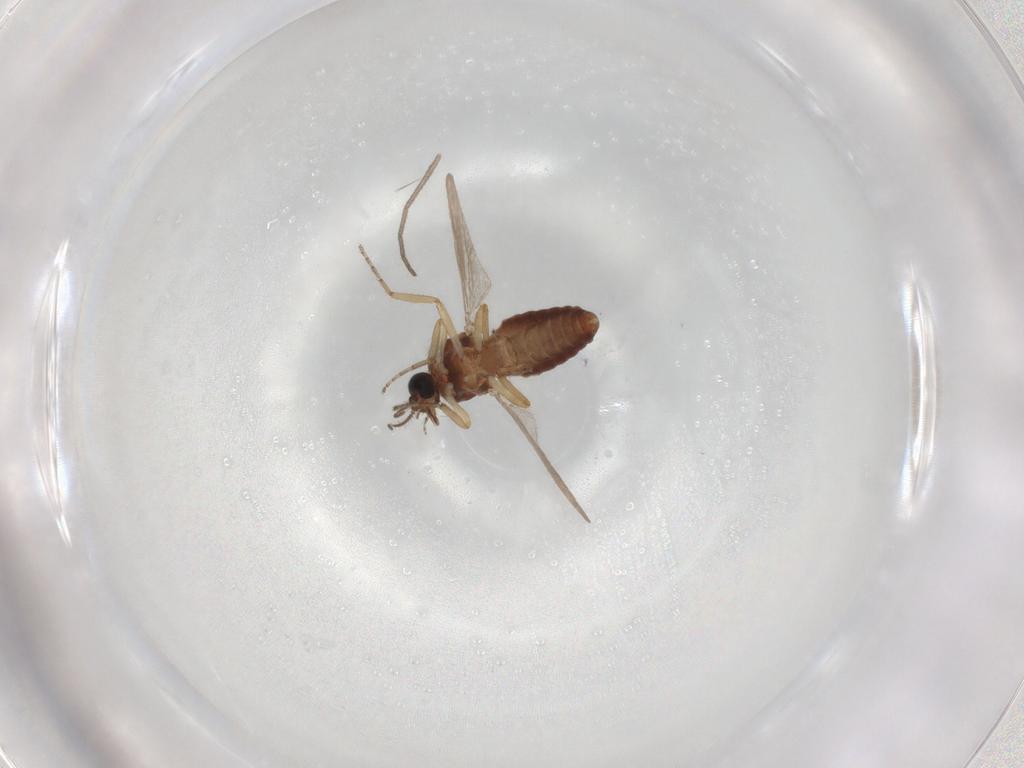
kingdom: Animalia
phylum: Arthropoda
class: Insecta
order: Diptera
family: Ceratopogonidae
